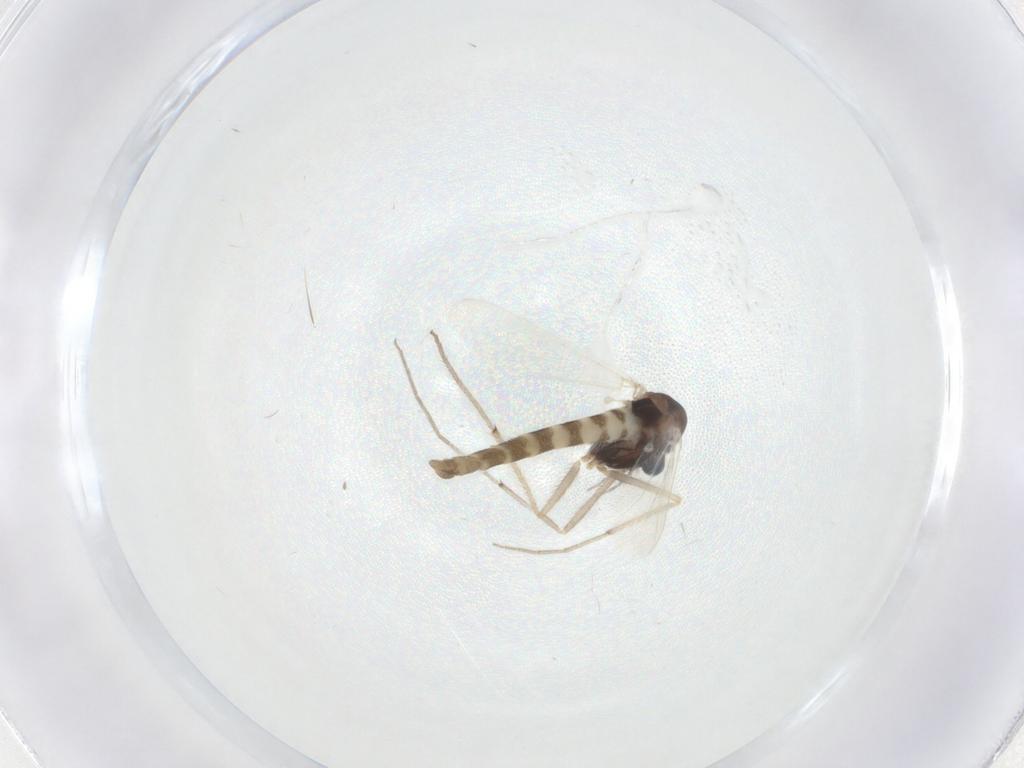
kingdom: Animalia
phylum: Arthropoda
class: Insecta
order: Diptera
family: Chironomidae
